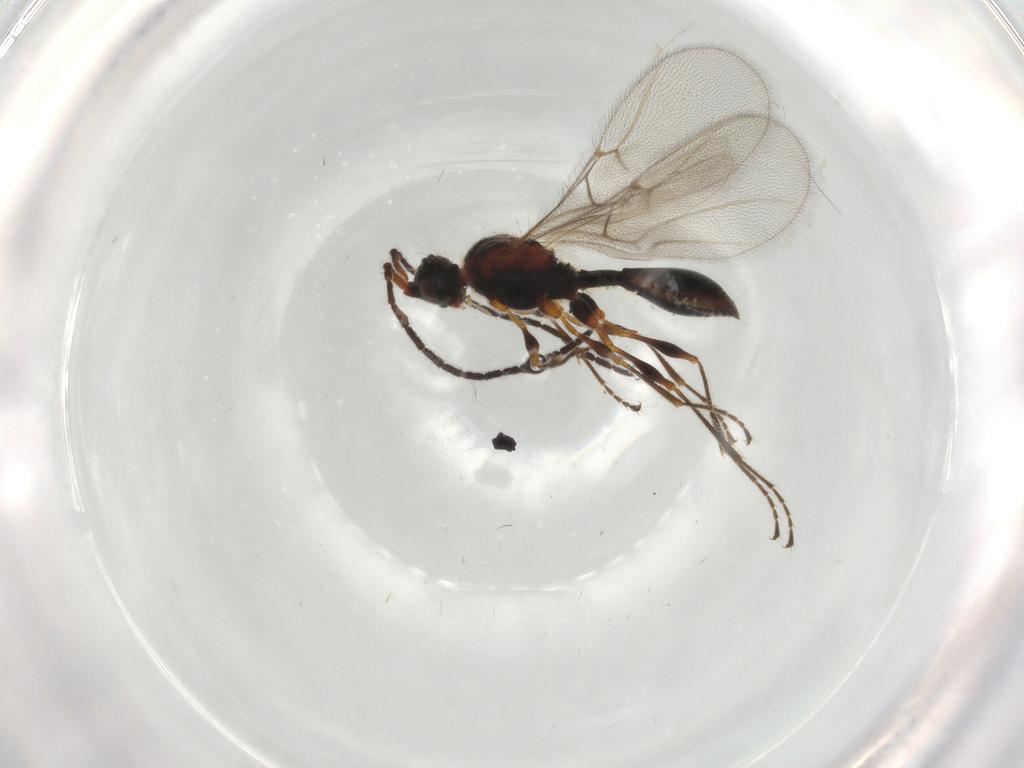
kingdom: Animalia
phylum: Arthropoda
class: Insecta
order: Hymenoptera
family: Diapriidae
